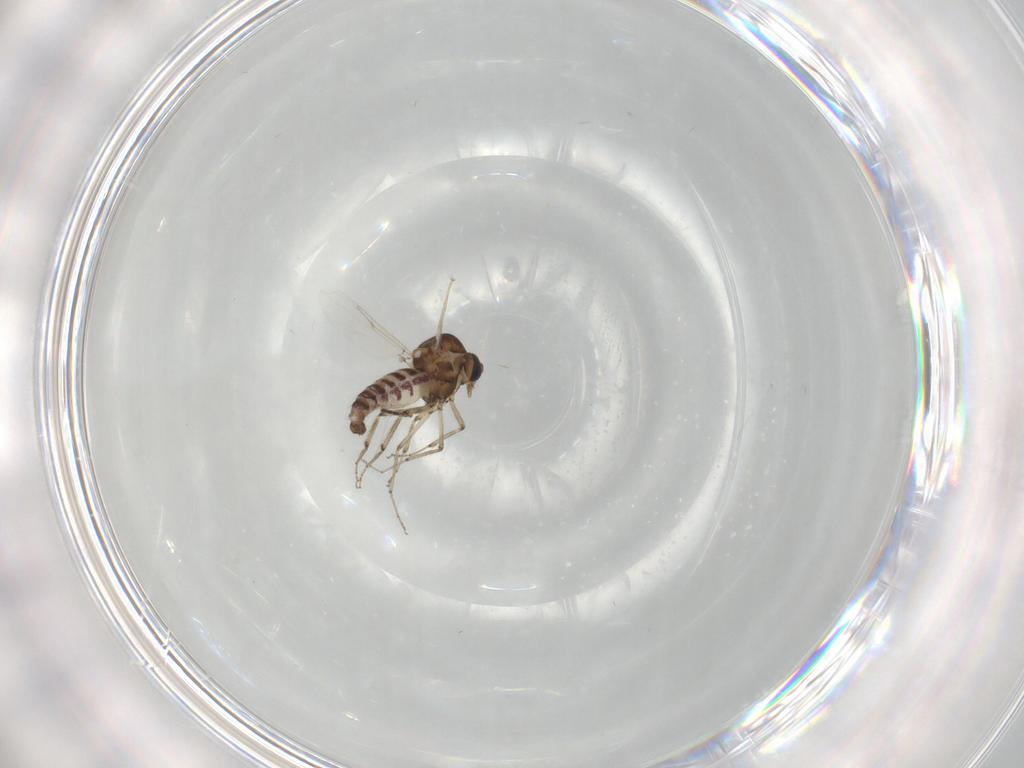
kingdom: Animalia
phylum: Arthropoda
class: Insecta
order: Diptera
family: Ceratopogonidae
